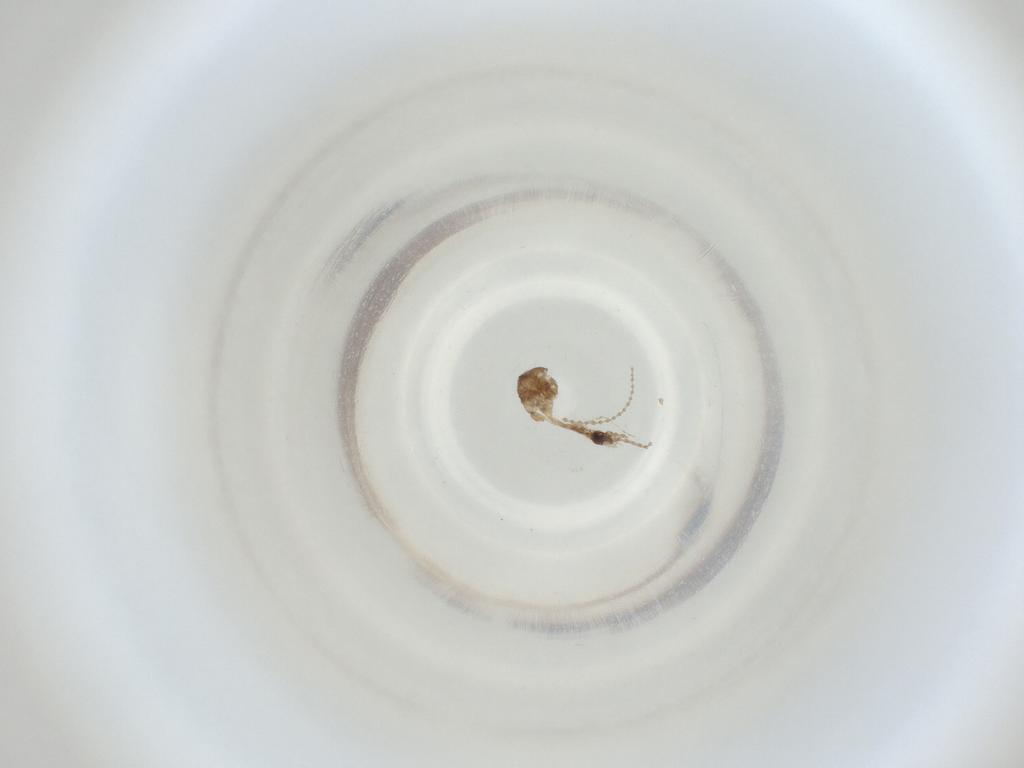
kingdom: Animalia
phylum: Arthropoda
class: Insecta
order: Diptera
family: Cecidomyiidae
